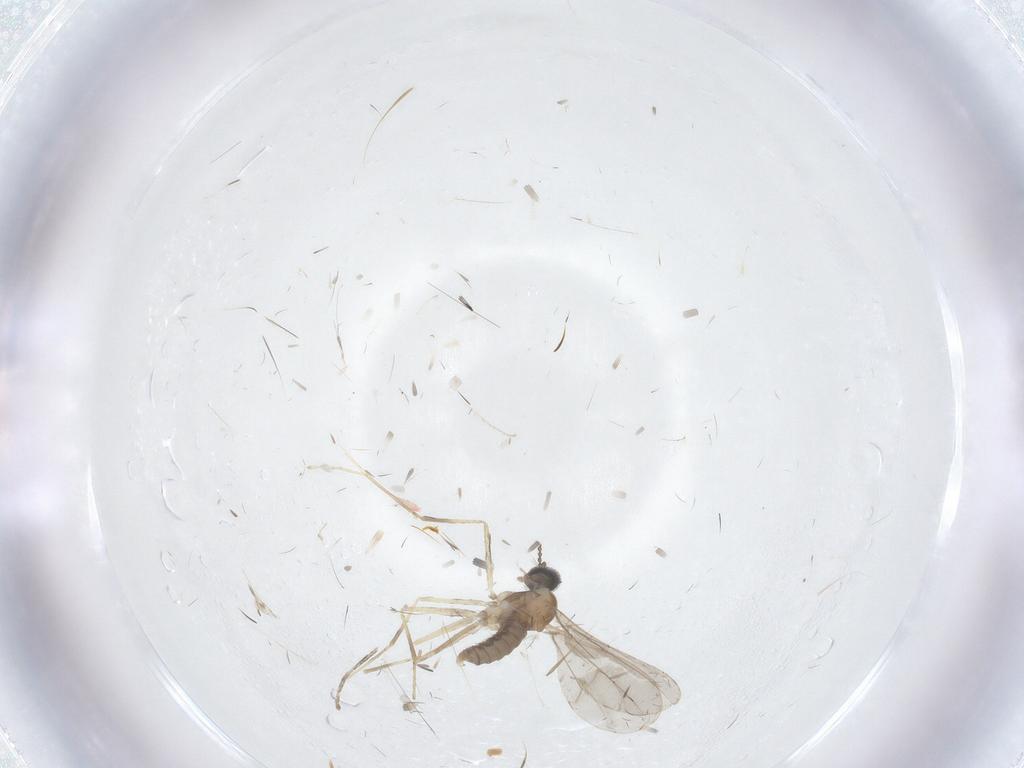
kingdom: Animalia
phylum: Arthropoda
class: Insecta
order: Diptera
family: Cecidomyiidae
